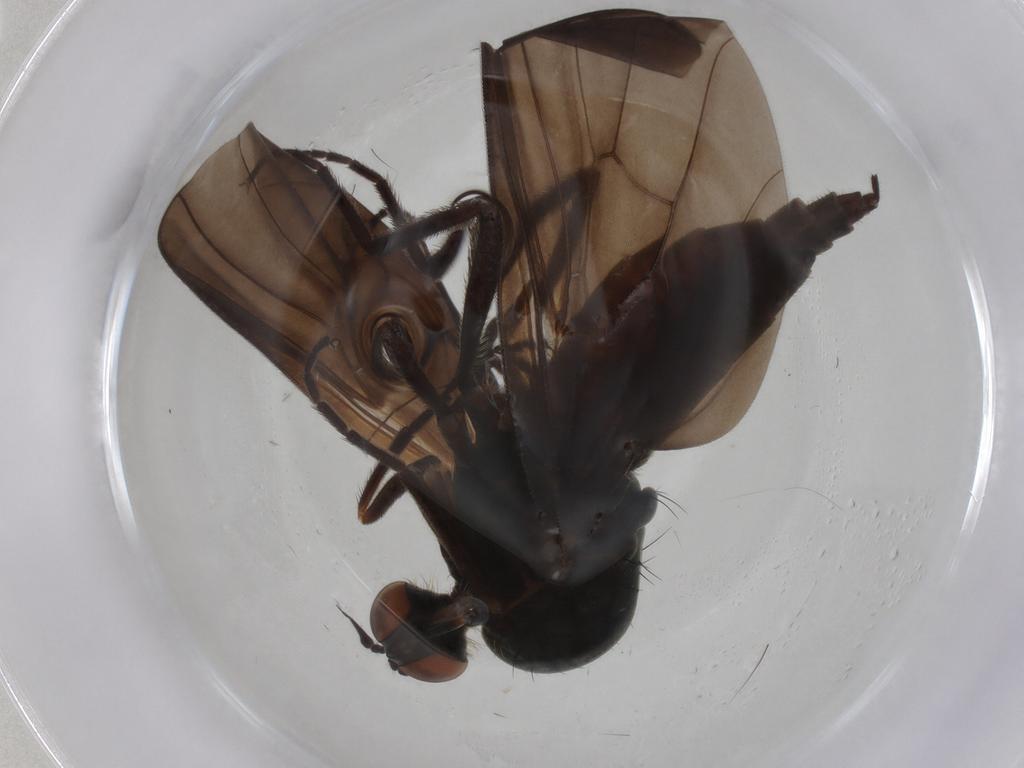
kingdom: Animalia
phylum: Arthropoda
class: Insecta
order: Diptera
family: Empididae
